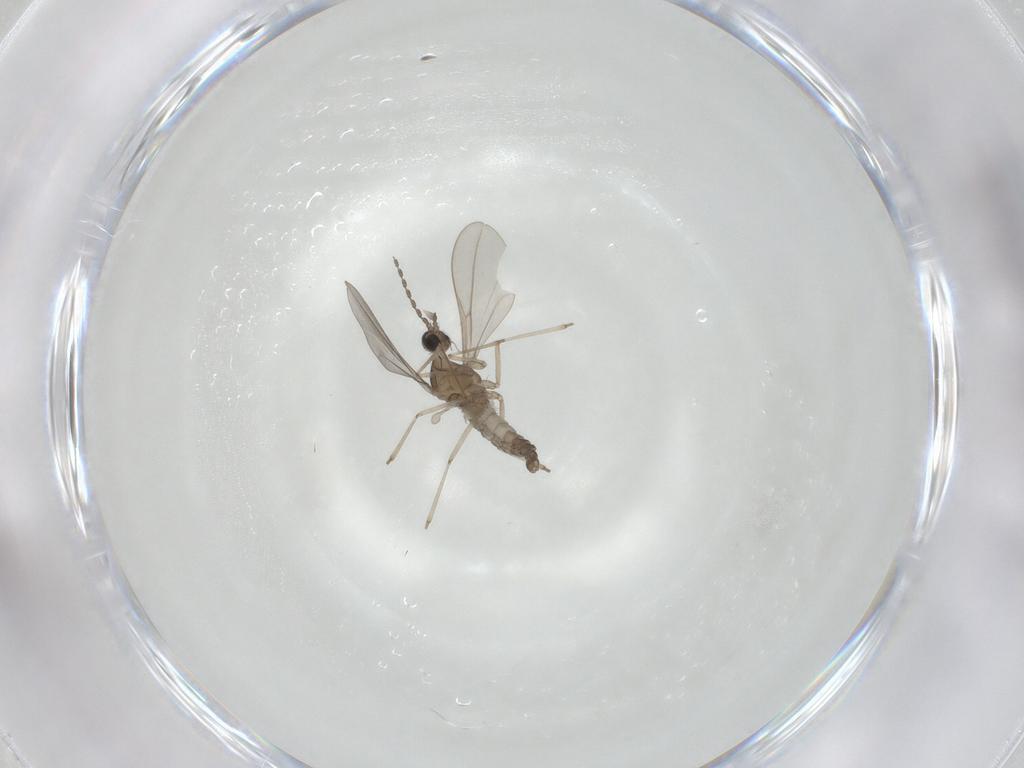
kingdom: Animalia
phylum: Arthropoda
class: Insecta
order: Diptera
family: Cecidomyiidae
